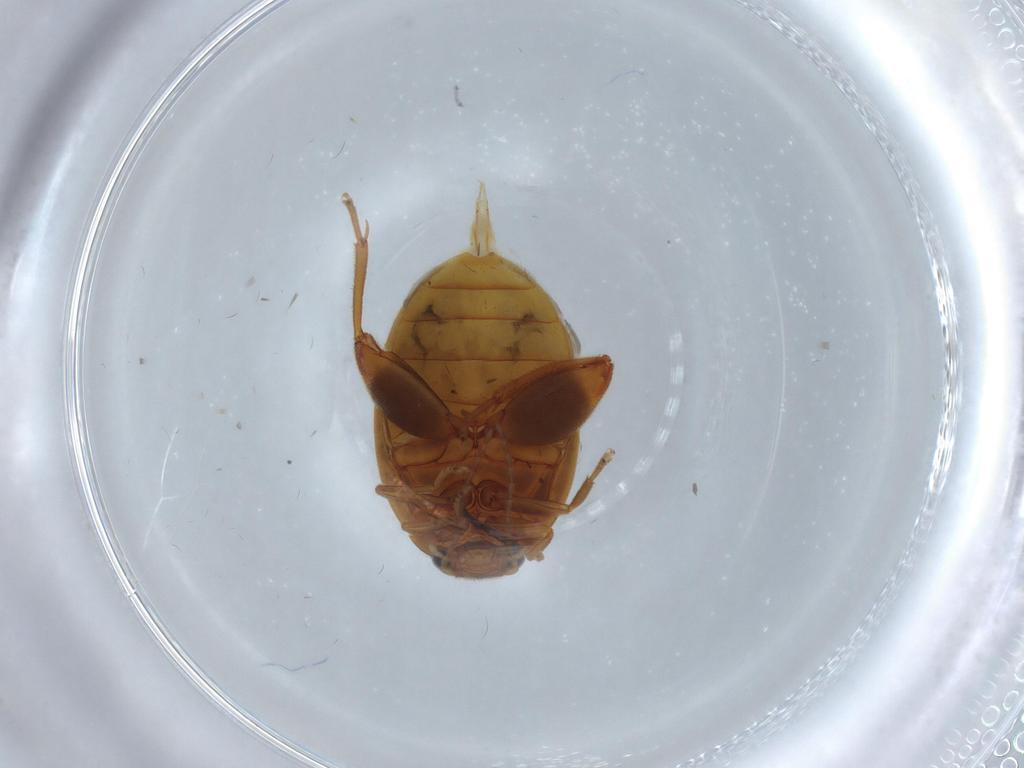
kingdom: Animalia
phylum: Arthropoda
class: Insecta
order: Coleoptera
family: Scirtidae
